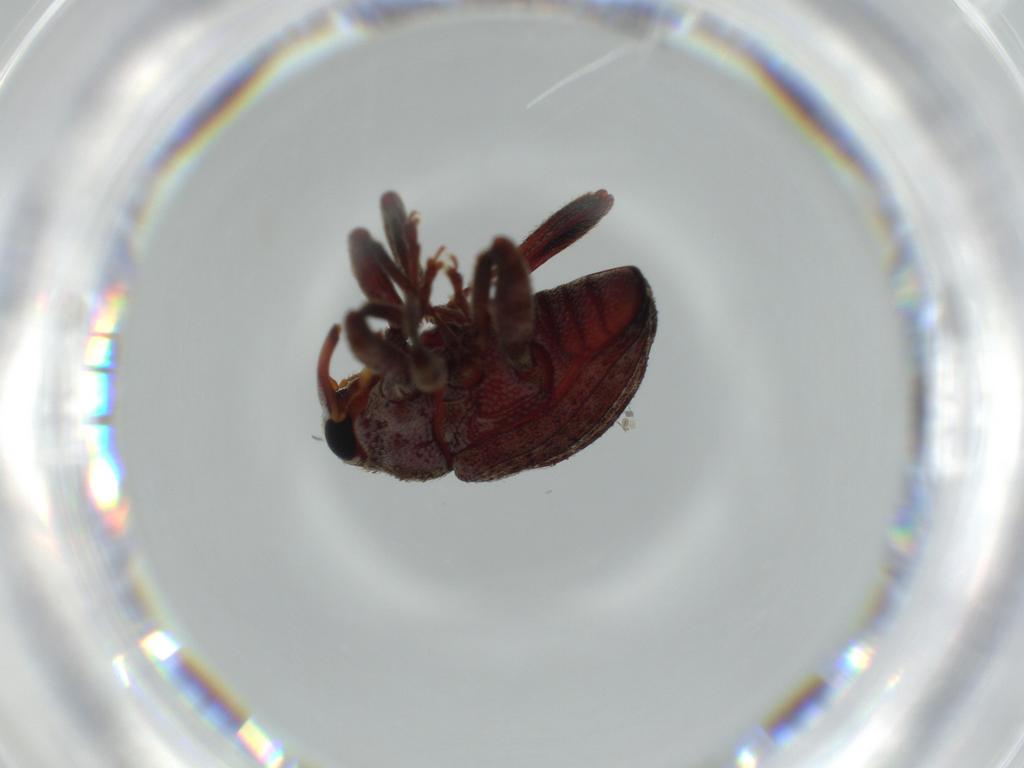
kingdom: Animalia
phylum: Arthropoda
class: Insecta
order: Coleoptera
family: Curculionidae
